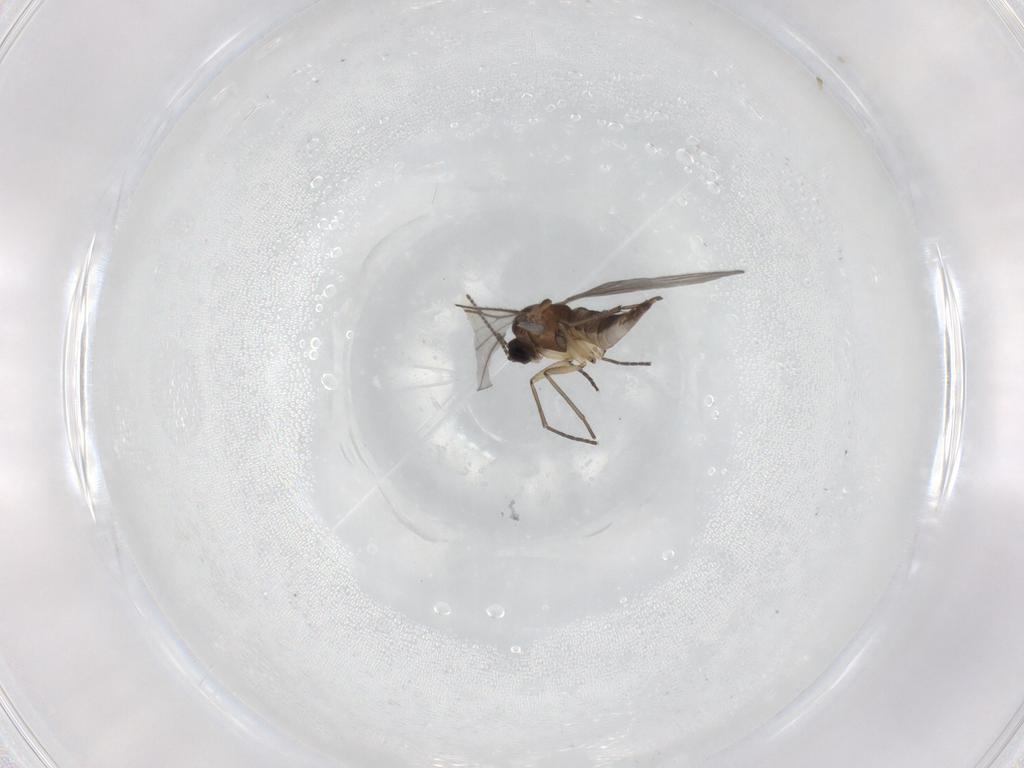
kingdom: Animalia
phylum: Arthropoda
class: Insecta
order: Diptera
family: Sciaridae
